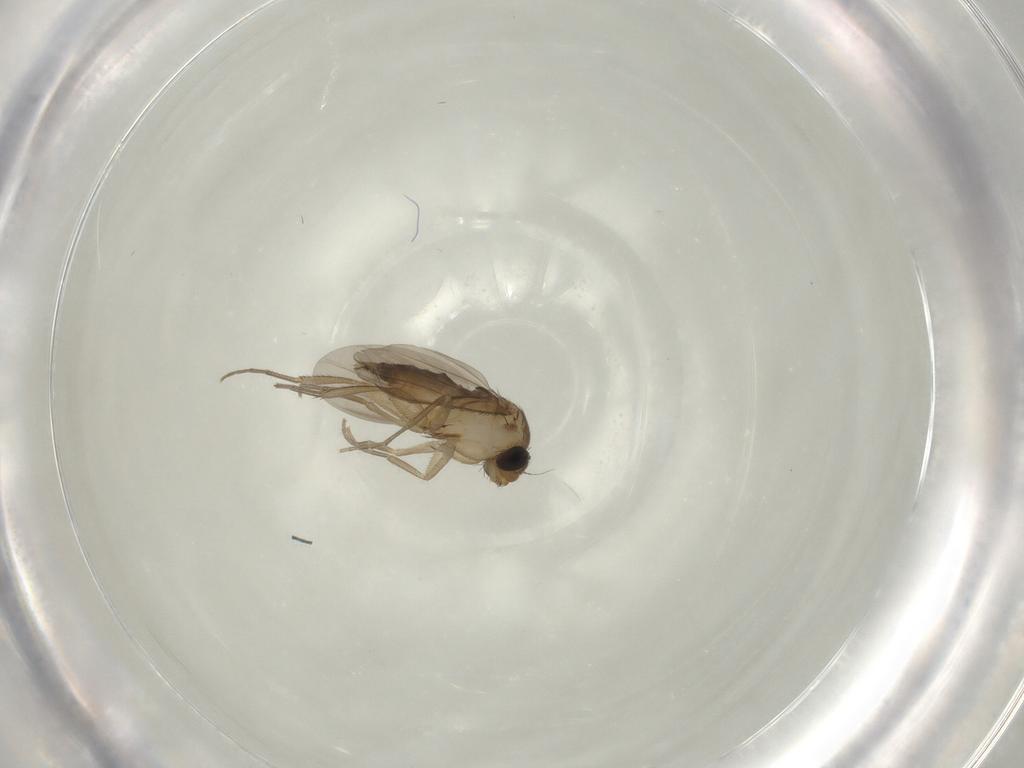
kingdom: Animalia
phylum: Arthropoda
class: Insecta
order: Diptera
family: Phoridae
